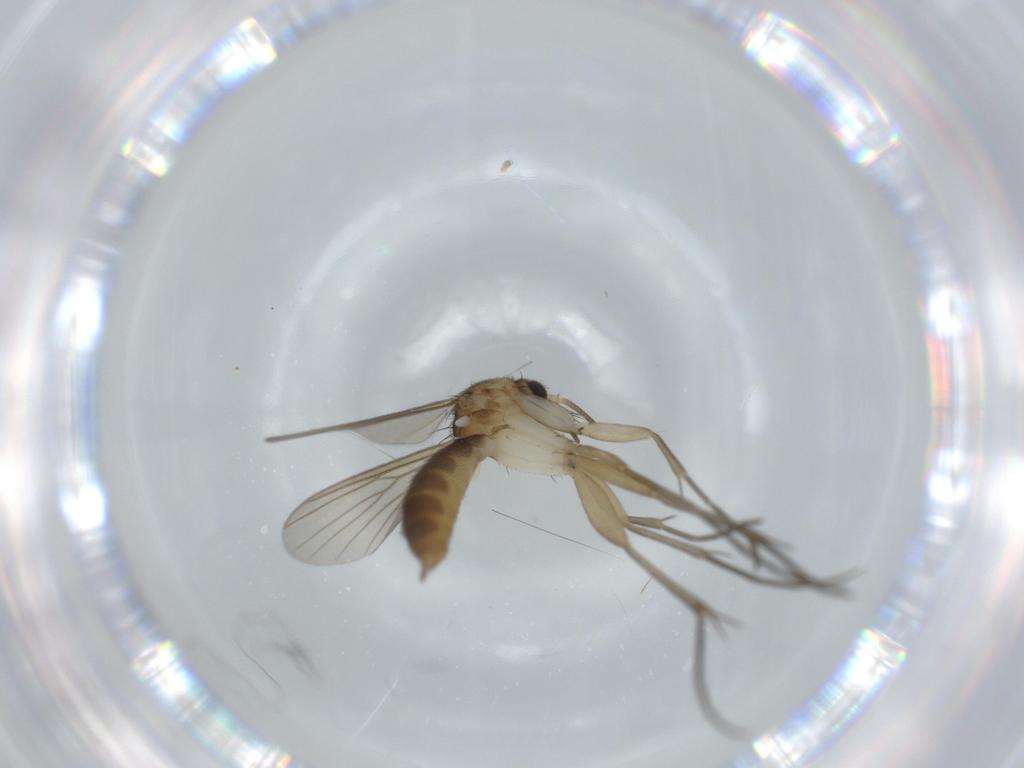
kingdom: Animalia
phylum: Arthropoda
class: Insecta
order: Diptera
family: Mycetophilidae
